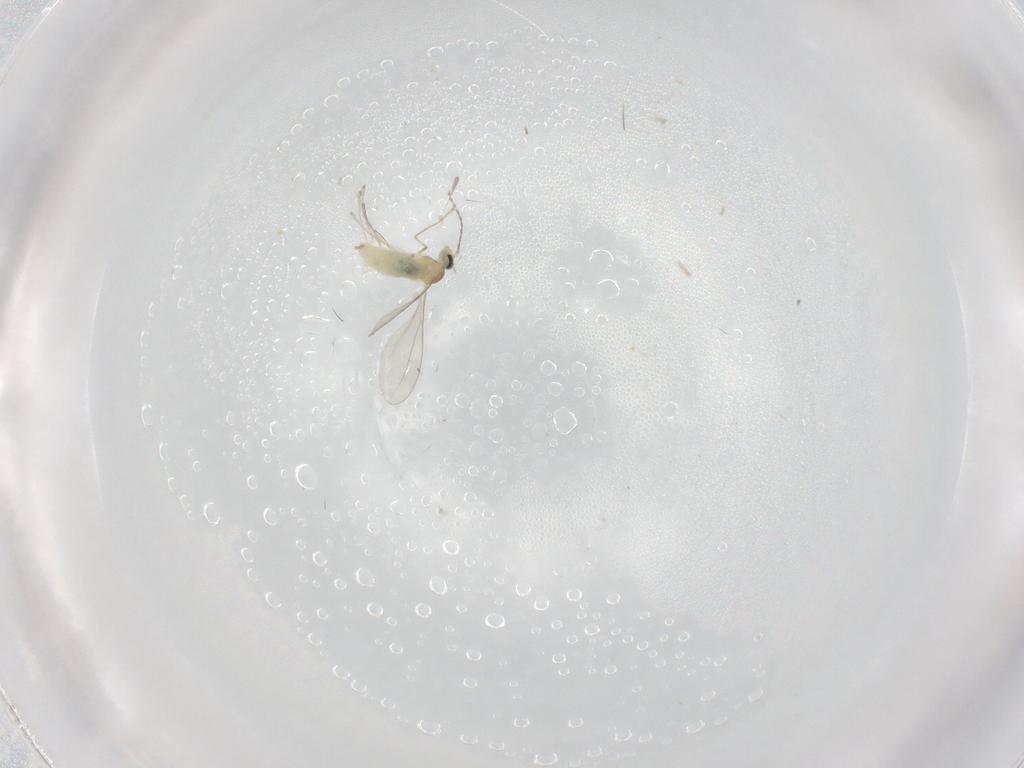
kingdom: Animalia
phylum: Arthropoda
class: Insecta
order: Diptera
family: Cecidomyiidae
